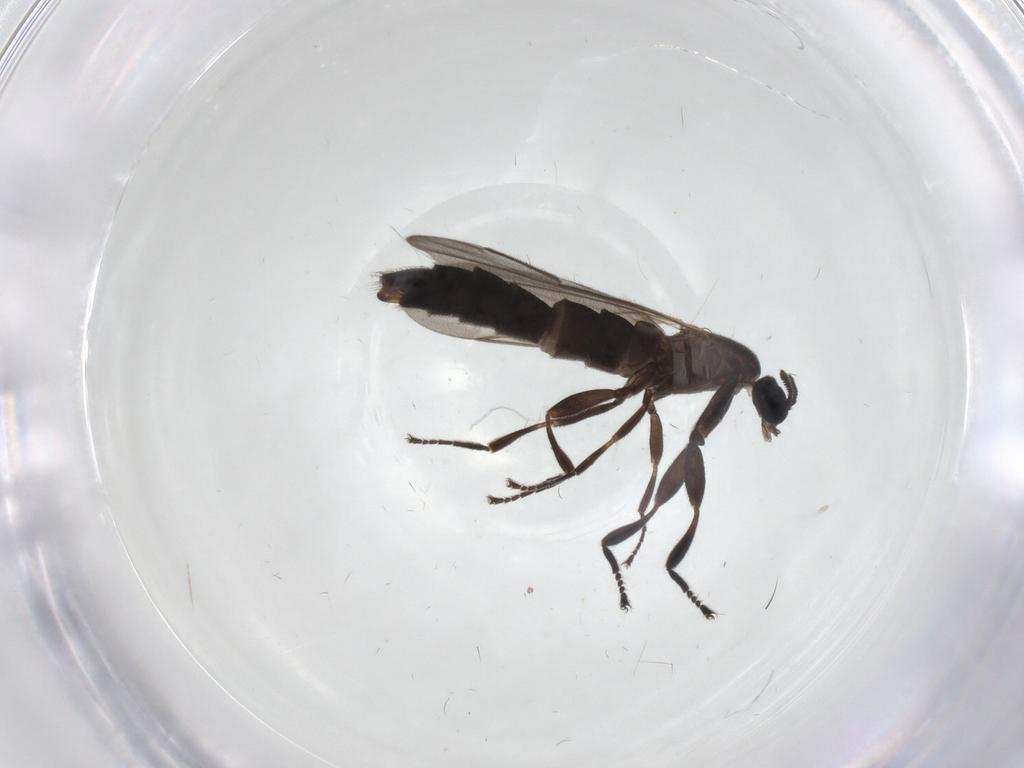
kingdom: Animalia
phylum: Arthropoda
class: Insecta
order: Diptera
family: Scatopsidae
